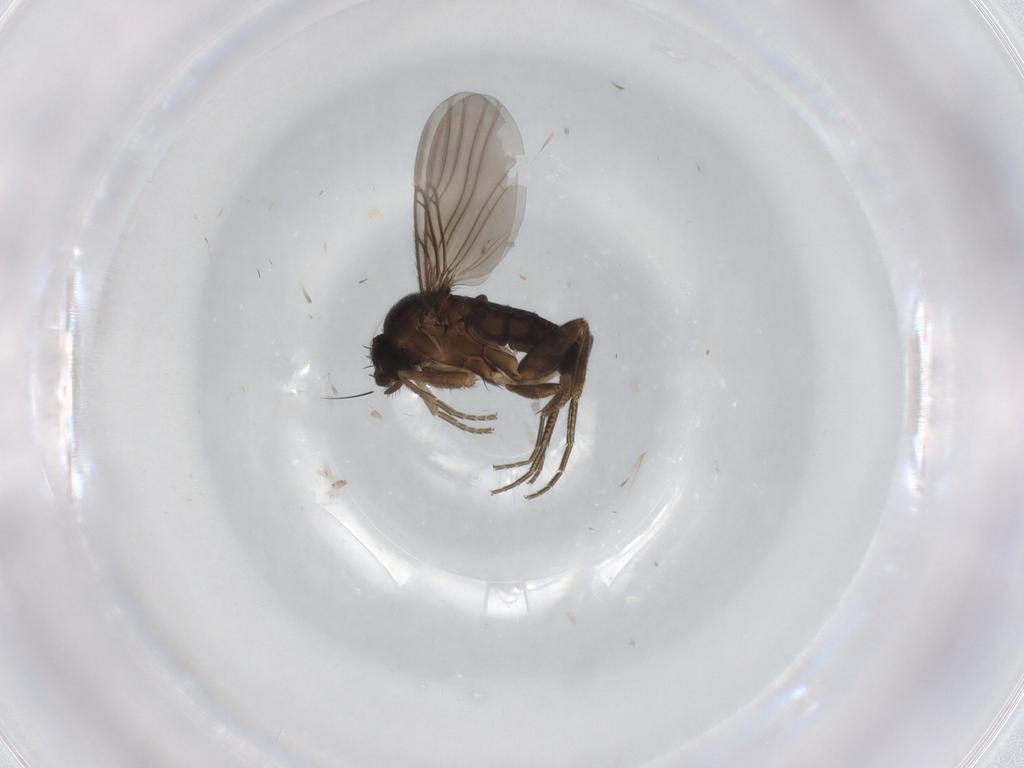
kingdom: Animalia
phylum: Arthropoda
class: Insecta
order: Diptera
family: Phoridae
